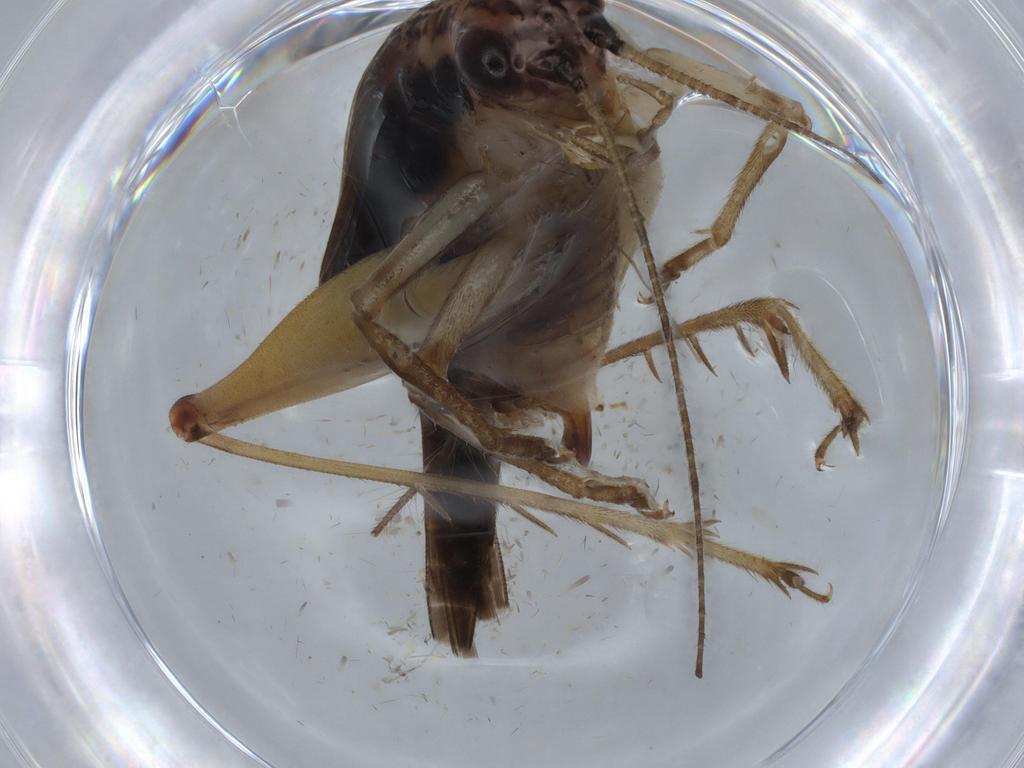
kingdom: Animalia
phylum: Arthropoda
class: Insecta
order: Orthoptera
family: Trigonidiidae
